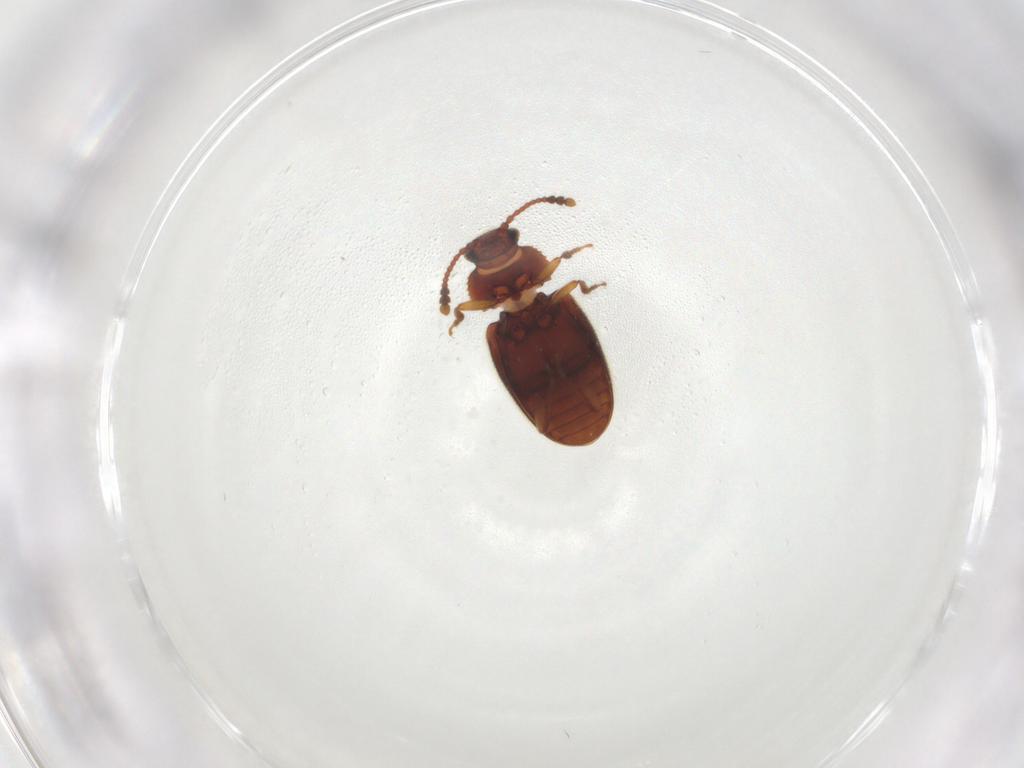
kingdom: Animalia
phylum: Arthropoda
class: Insecta
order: Coleoptera
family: Cryptophagidae
